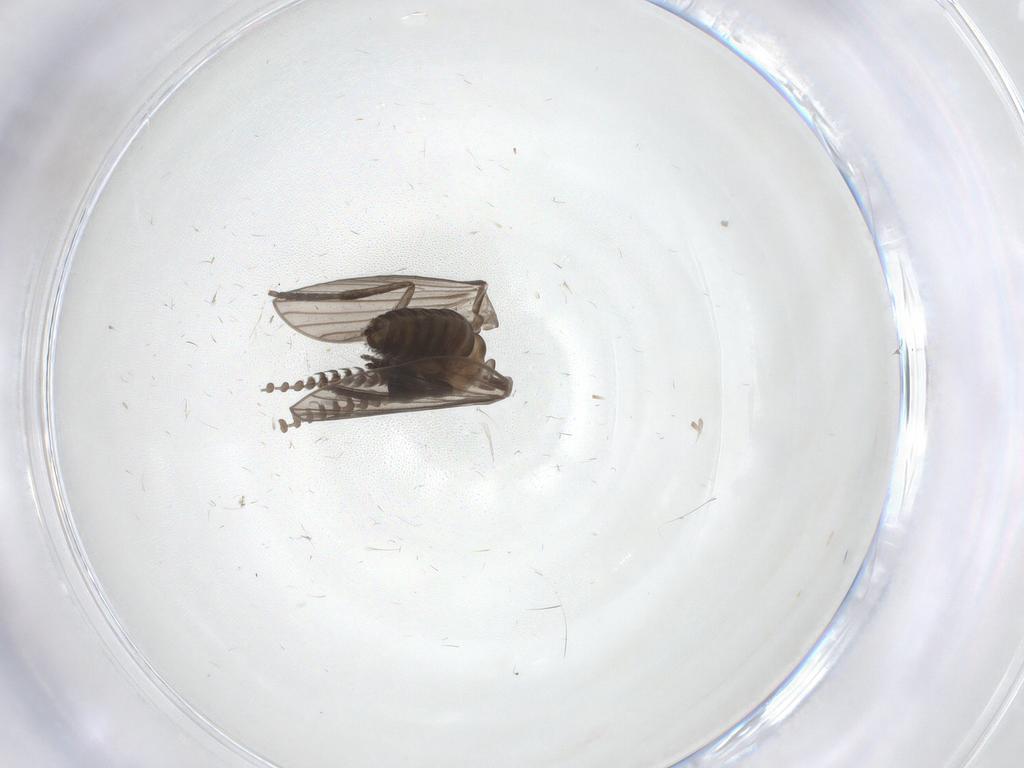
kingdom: Animalia
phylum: Arthropoda
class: Insecta
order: Diptera
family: Psychodidae
